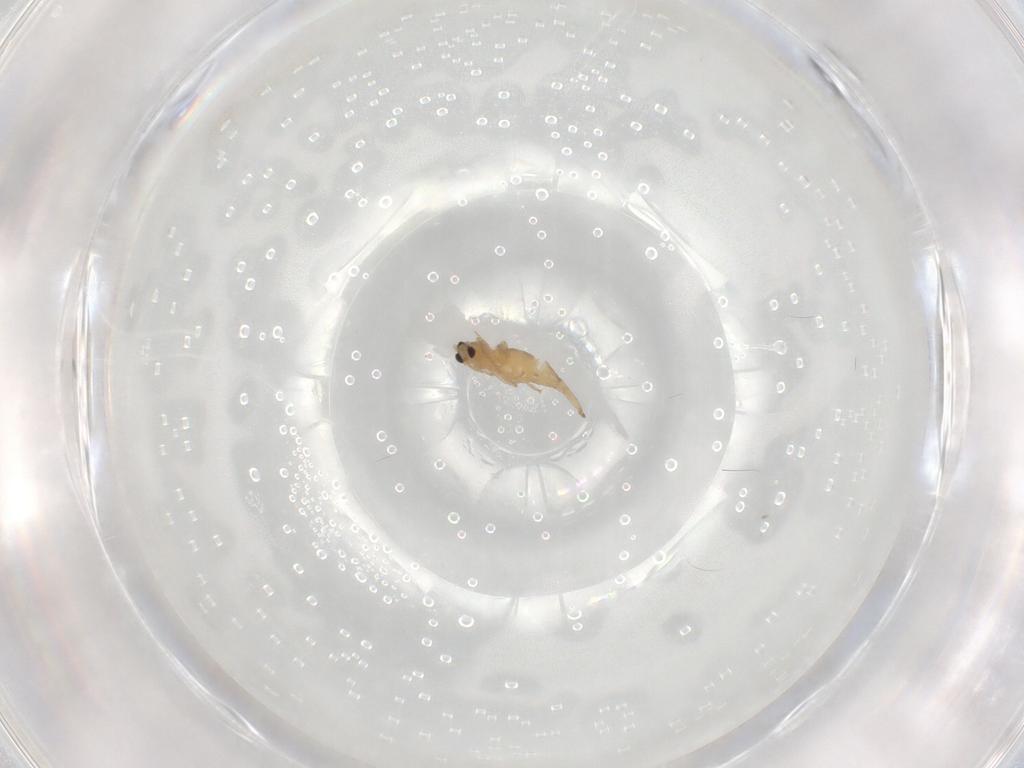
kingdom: Animalia
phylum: Arthropoda
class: Insecta
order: Diptera
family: Cecidomyiidae
